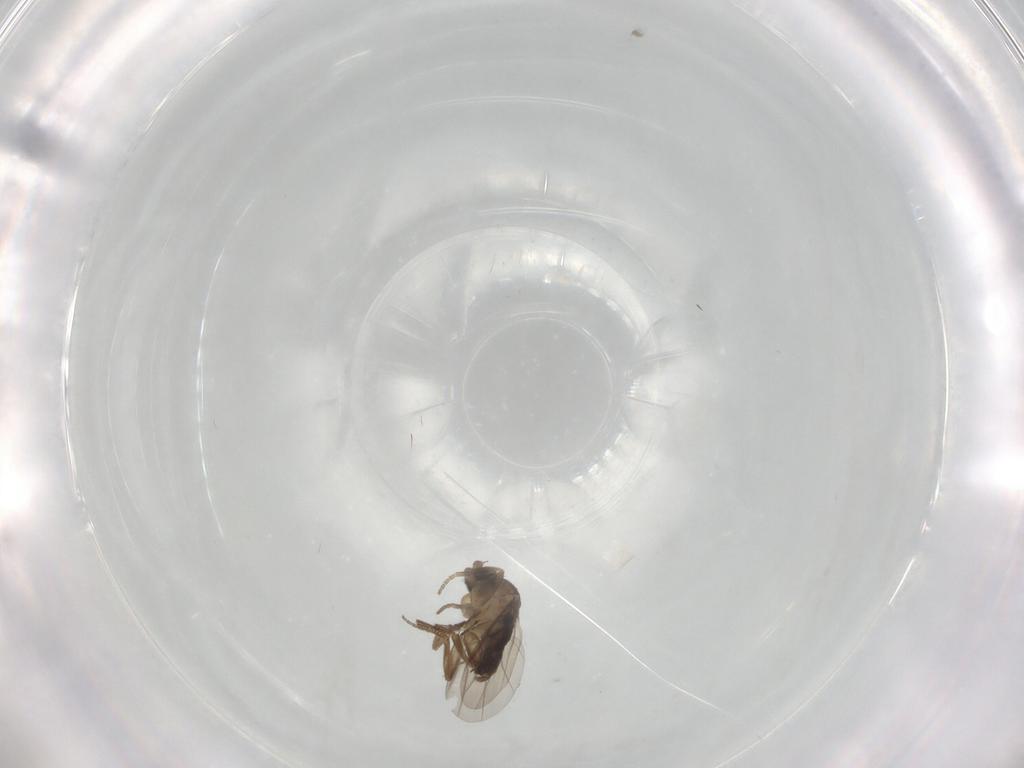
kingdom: Animalia
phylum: Arthropoda
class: Insecta
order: Diptera
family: Phoridae
